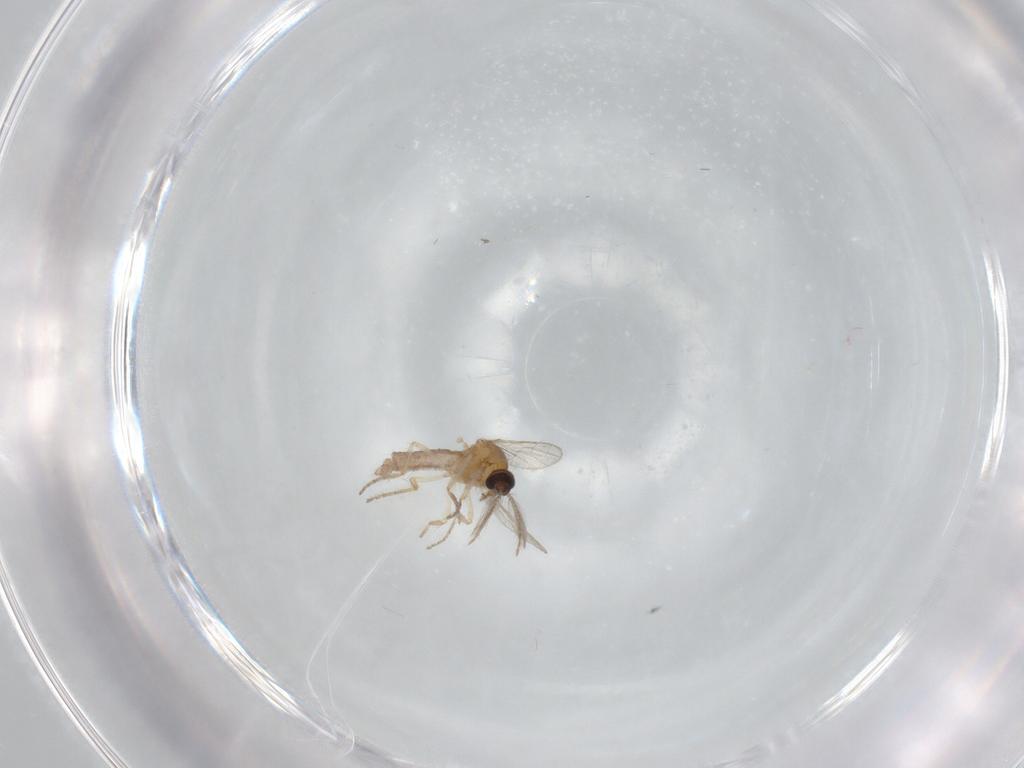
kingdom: Animalia
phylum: Arthropoda
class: Insecta
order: Diptera
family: Ceratopogonidae
